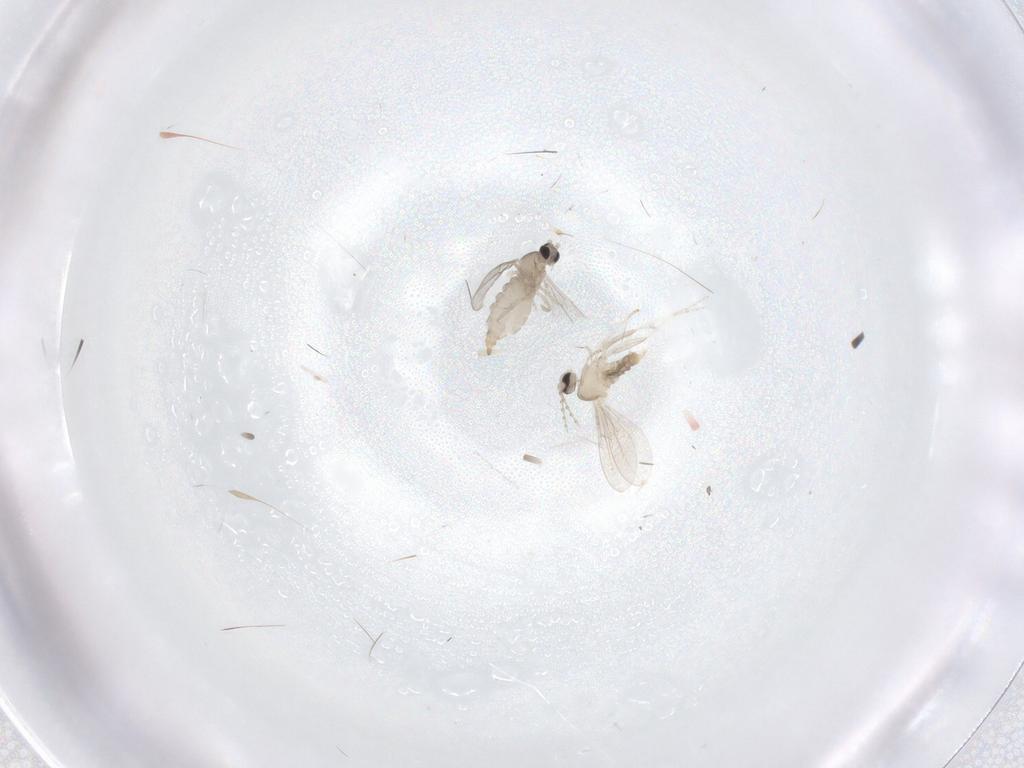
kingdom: Animalia
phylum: Arthropoda
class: Insecta
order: Diptera
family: Cecidomyiidae
